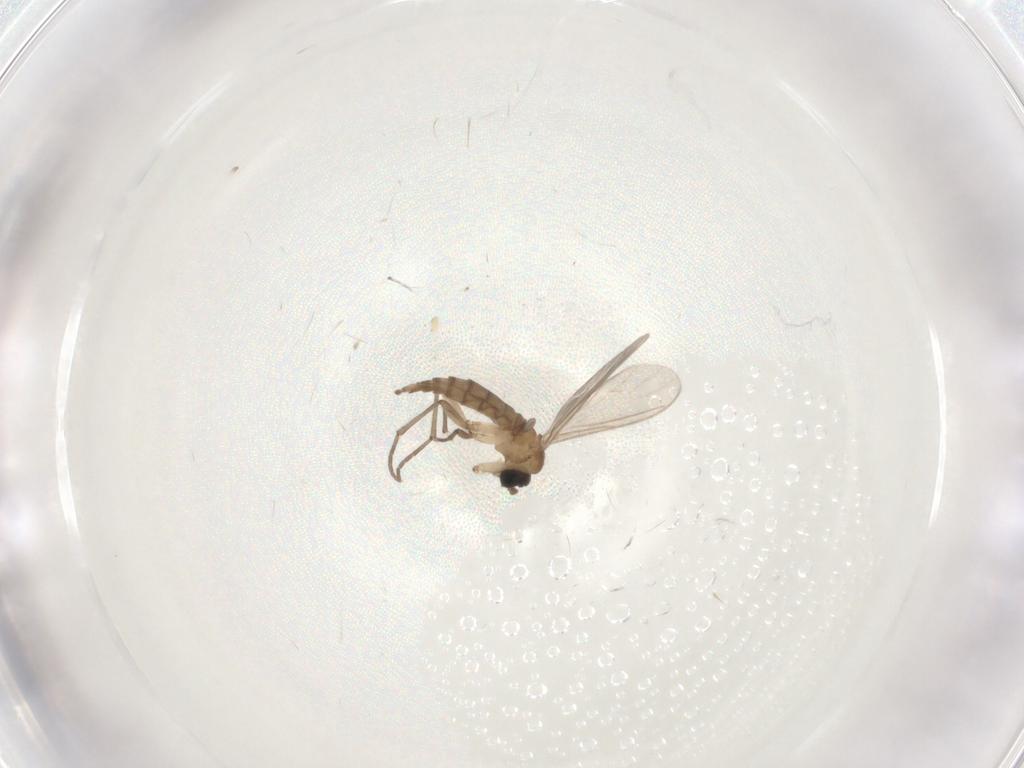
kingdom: Animalia
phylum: Arthropoda
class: Insecta
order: Diptera
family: Sciaridae
